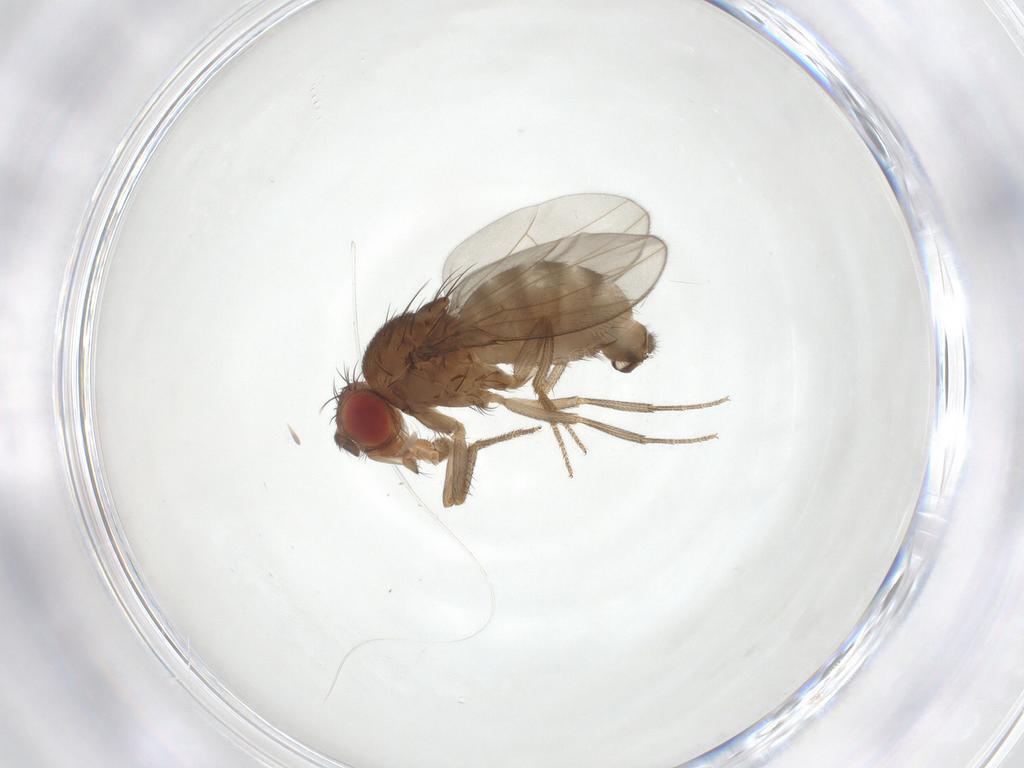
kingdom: Animalia
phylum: Arthropoda
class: Insecta
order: Diptera
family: Drosophilidae
